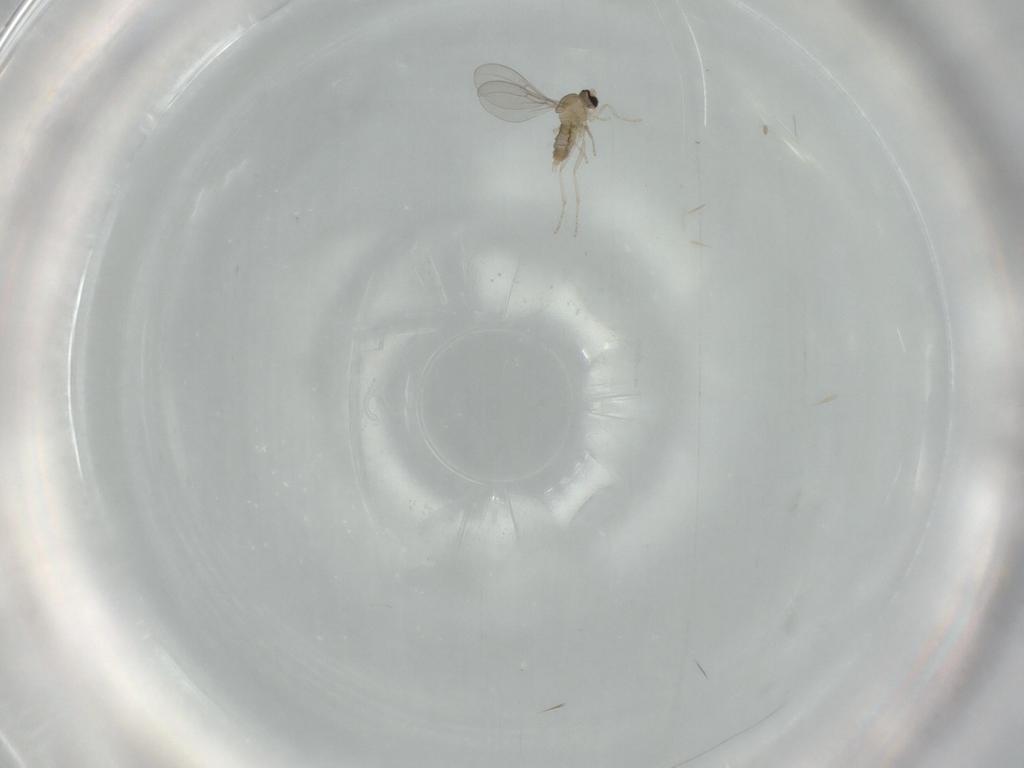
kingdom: Animalia
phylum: Arthropoda
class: Insecta
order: Diptera
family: Cecidomyiidae
